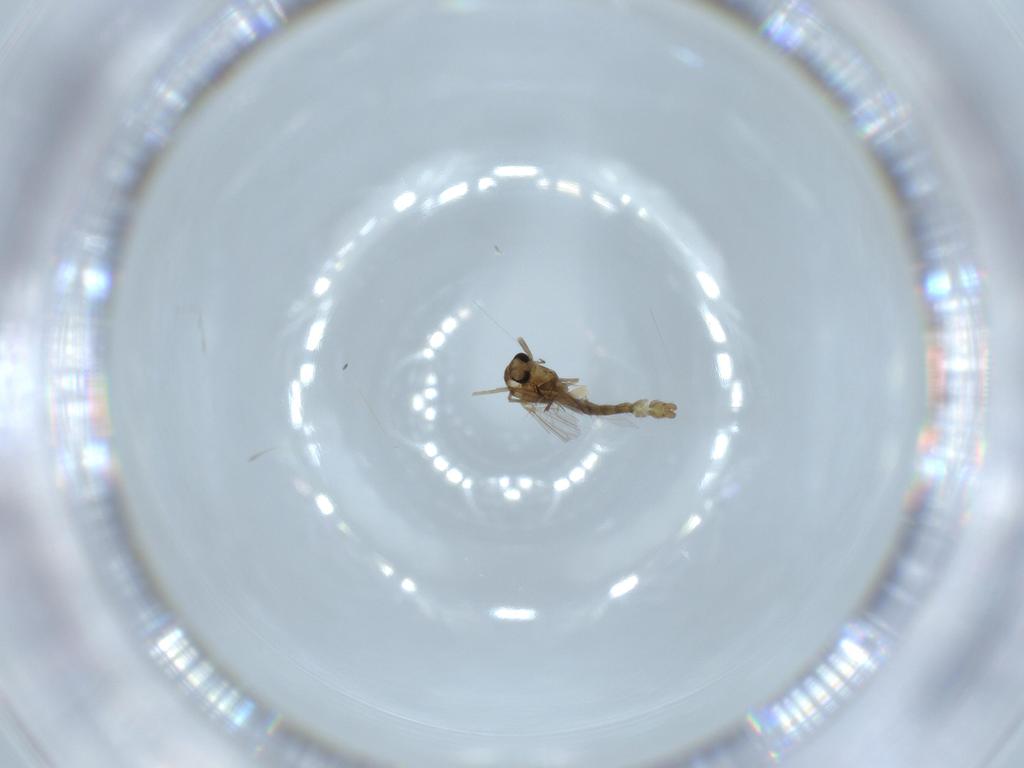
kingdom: Animalia
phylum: Arthropoda
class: Insecta
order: Diptera
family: Chironomidae
